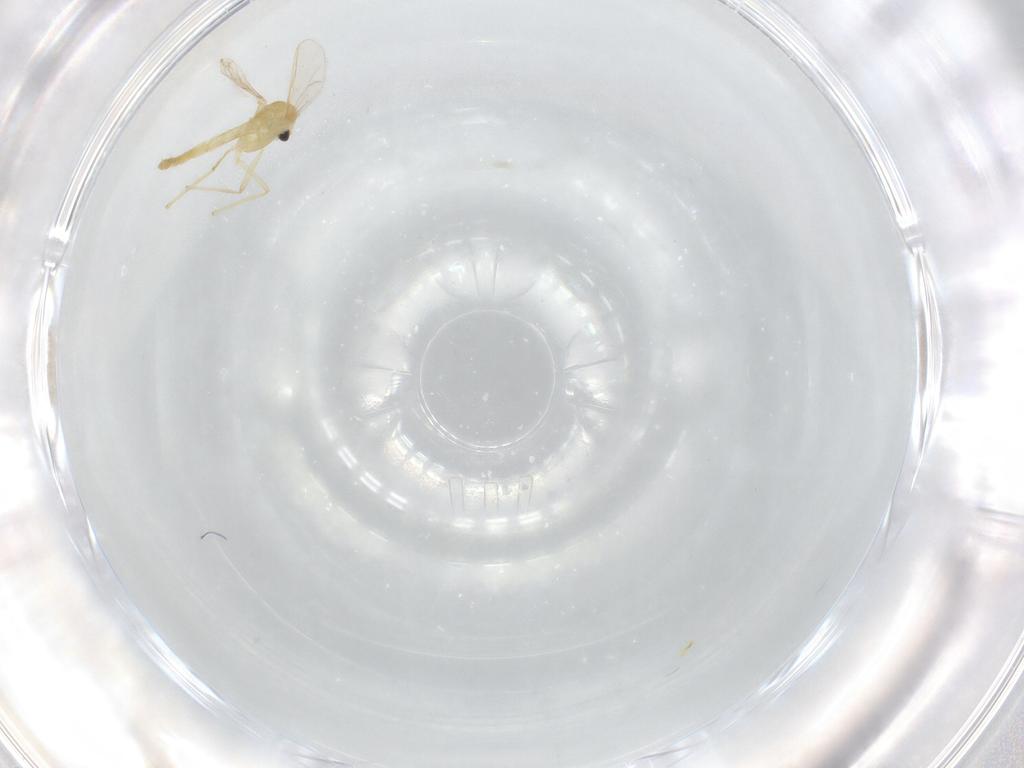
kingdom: Animalia
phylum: Arthropoda
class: Insecta
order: Diptera
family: Chironomidae
